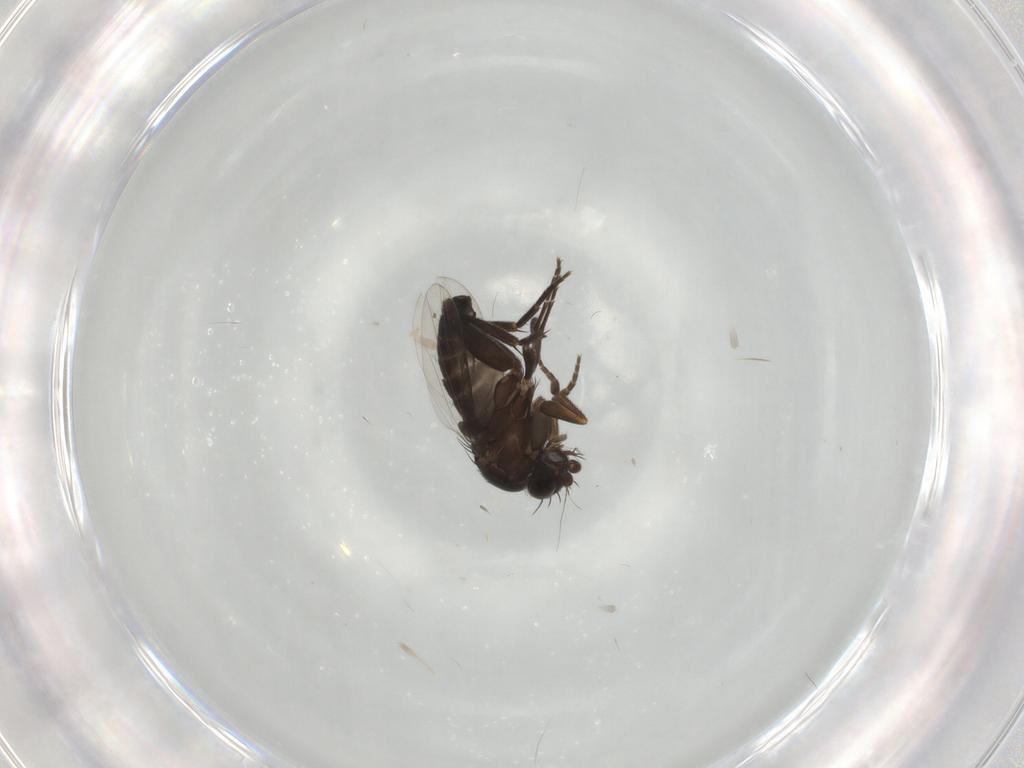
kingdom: Animalia
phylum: Arthropoda
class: Insecta
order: Diptera
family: Phoridae
